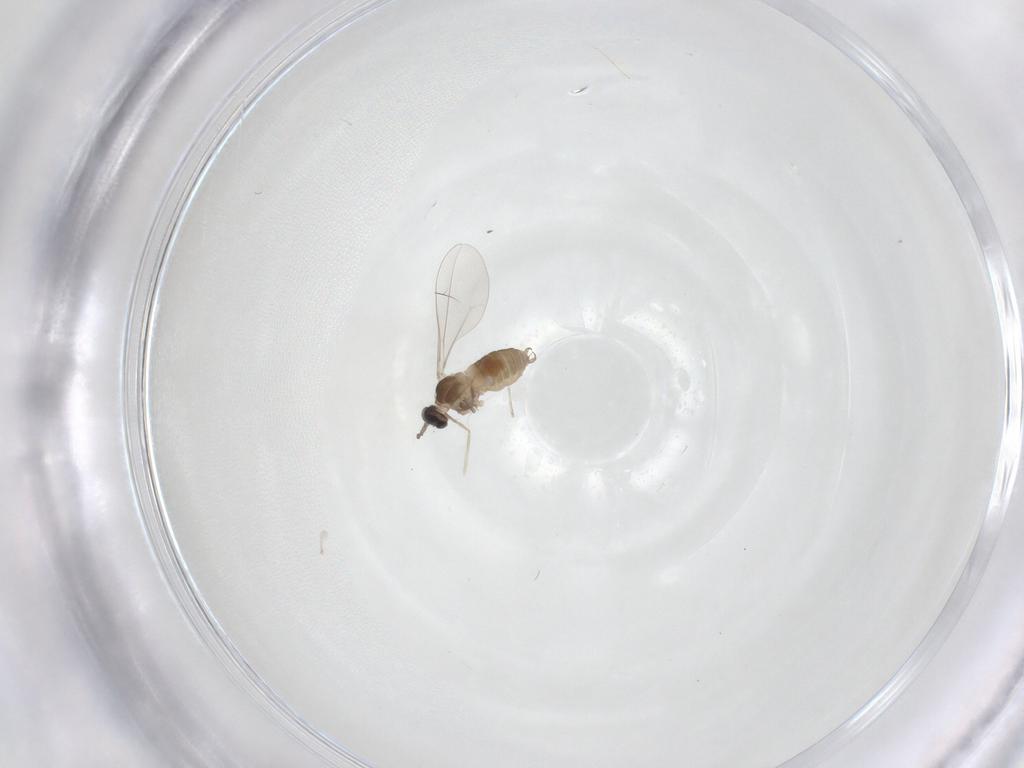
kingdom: Animalia
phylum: Arthropoda
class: Insecta
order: Diptera
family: Cecidomyiidae
